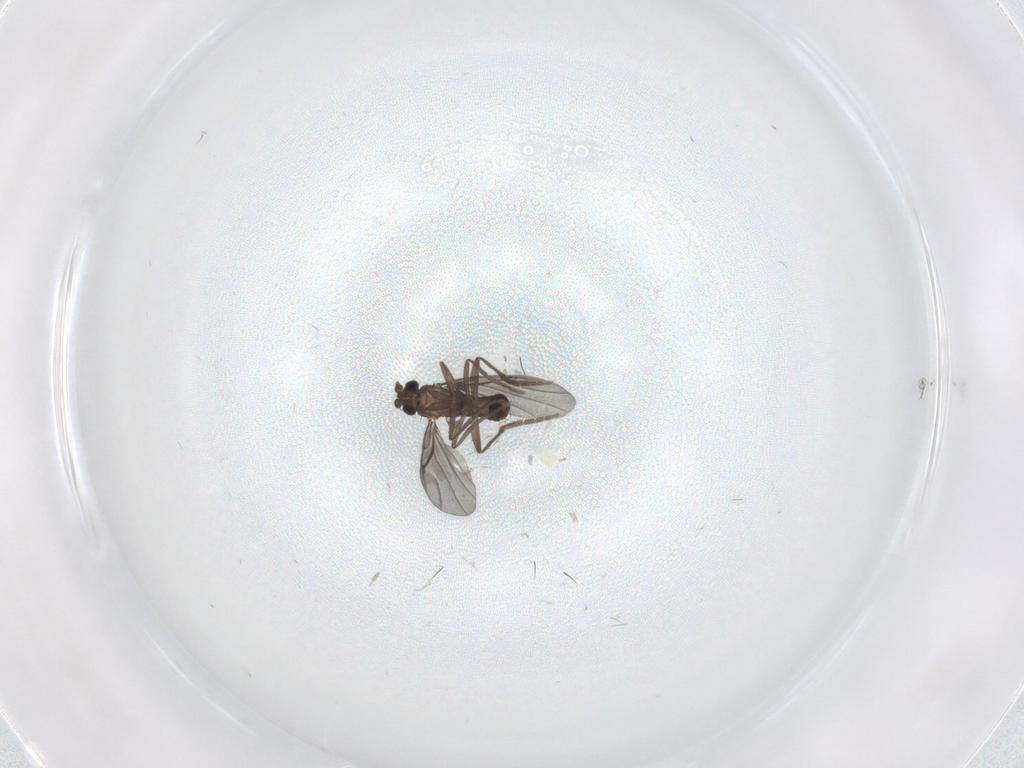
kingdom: Animalia
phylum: Arthropoda
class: Insecta
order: Diptera
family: Phoridae
